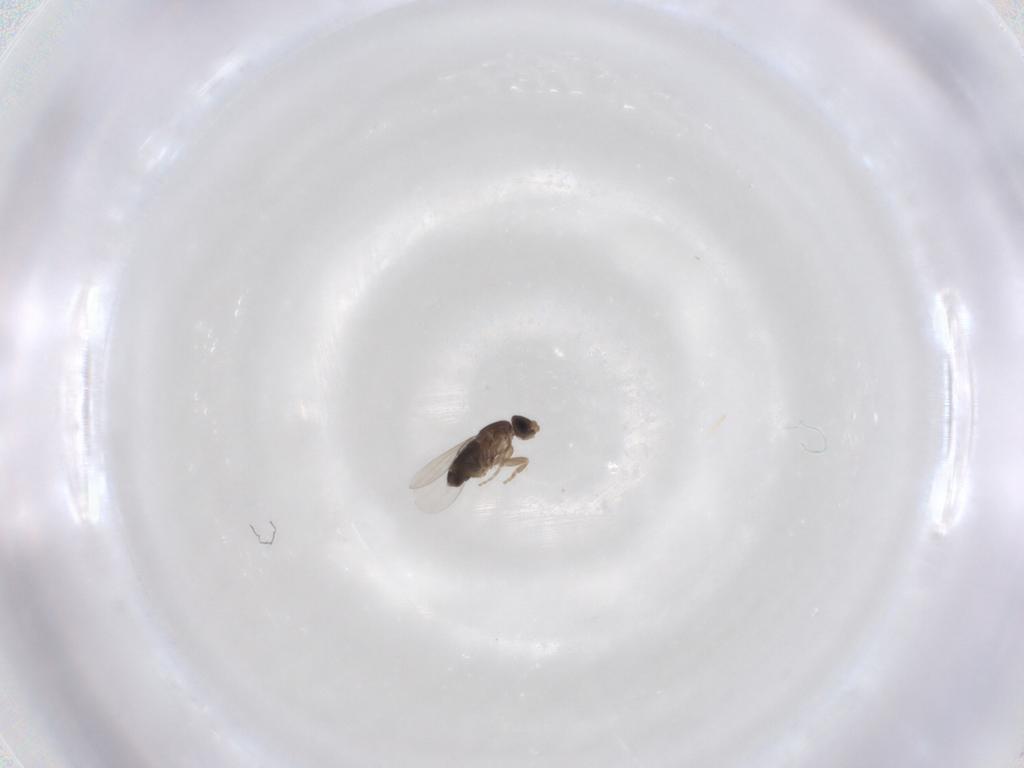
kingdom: Animalia
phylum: Arthropoda
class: Insecta
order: Diptera
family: Phoridae
